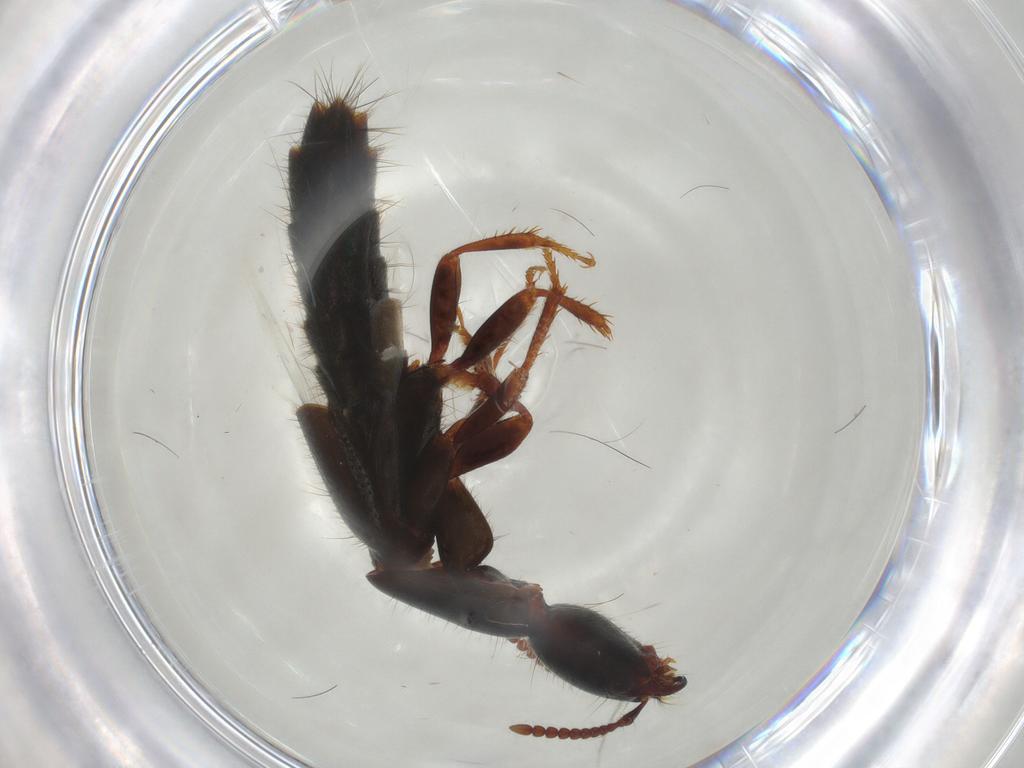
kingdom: Animalia
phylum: Arthropoda
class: Insecta
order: Coleoptera
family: Staphylinidae
